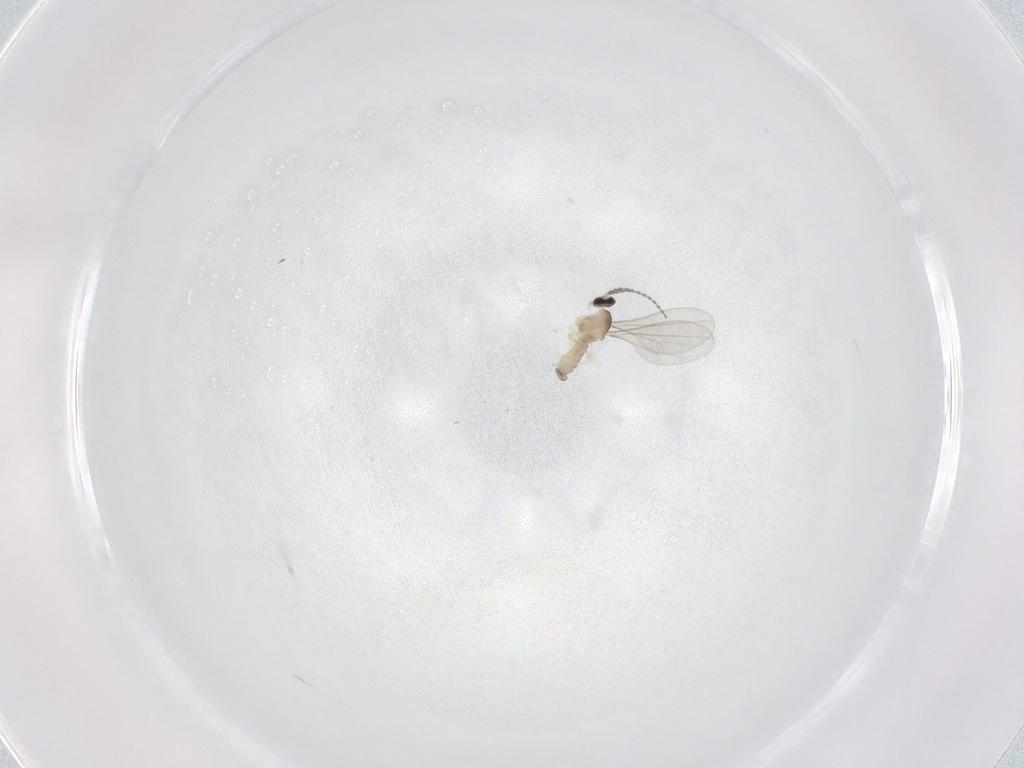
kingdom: Animalia
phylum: Arthropoda
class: Insecta
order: Diptera
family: Cecidomyiidae
